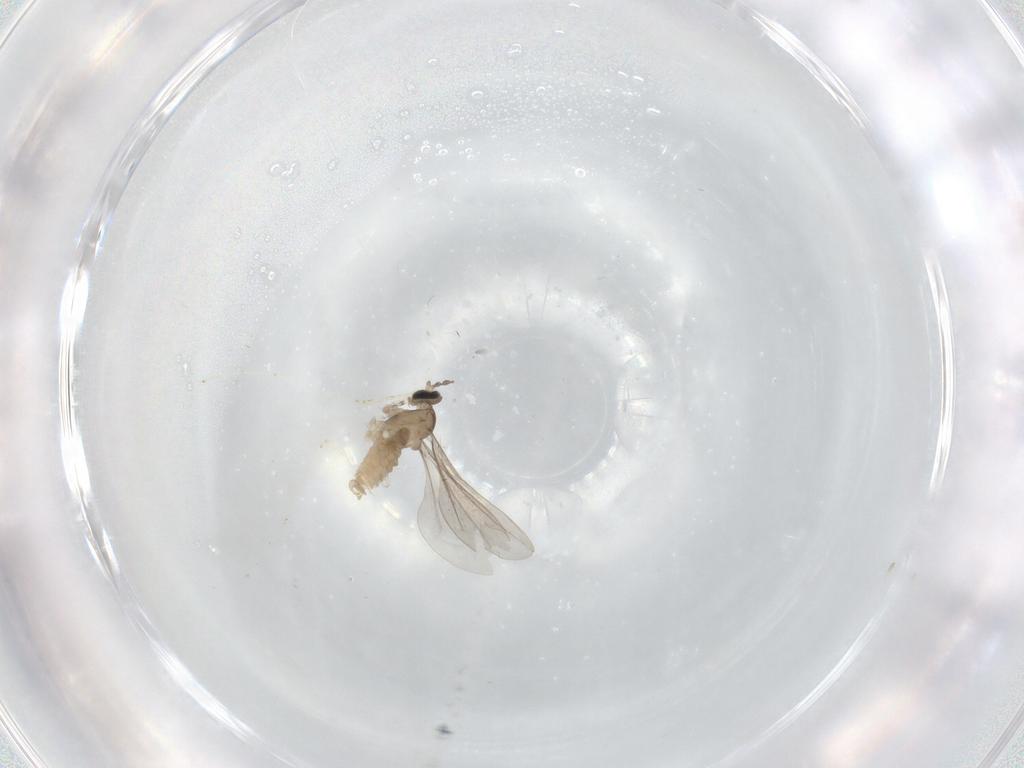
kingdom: Animalia
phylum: Arthropoda
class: Insecta
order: Diptera
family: Cecidomyiidae
